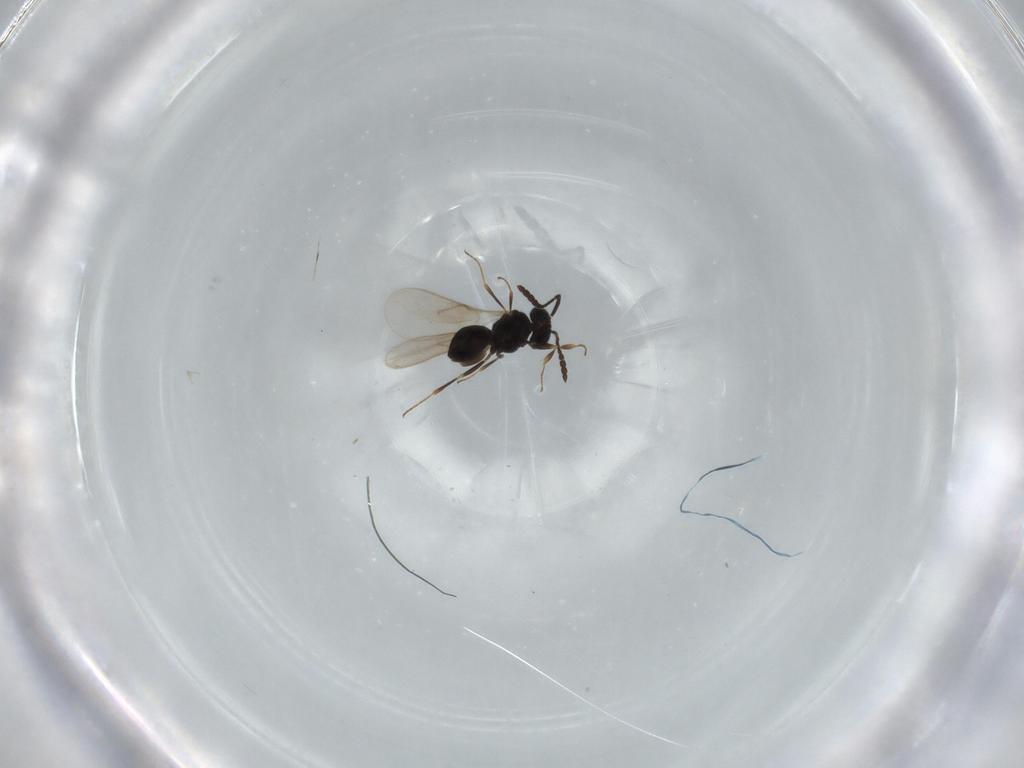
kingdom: Animalia
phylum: Arthropoda
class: Insecta
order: Hymenoptera
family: Scelionidae
